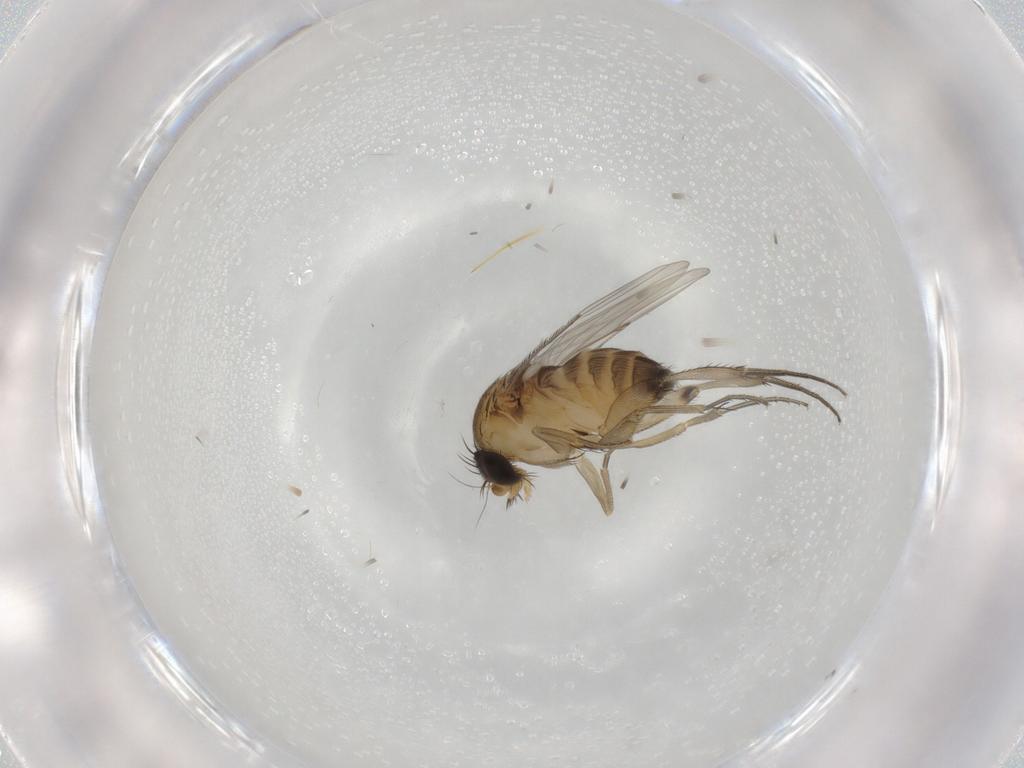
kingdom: Animalia
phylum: Arthropoda
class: Insecta
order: Diptera
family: Phoridae
